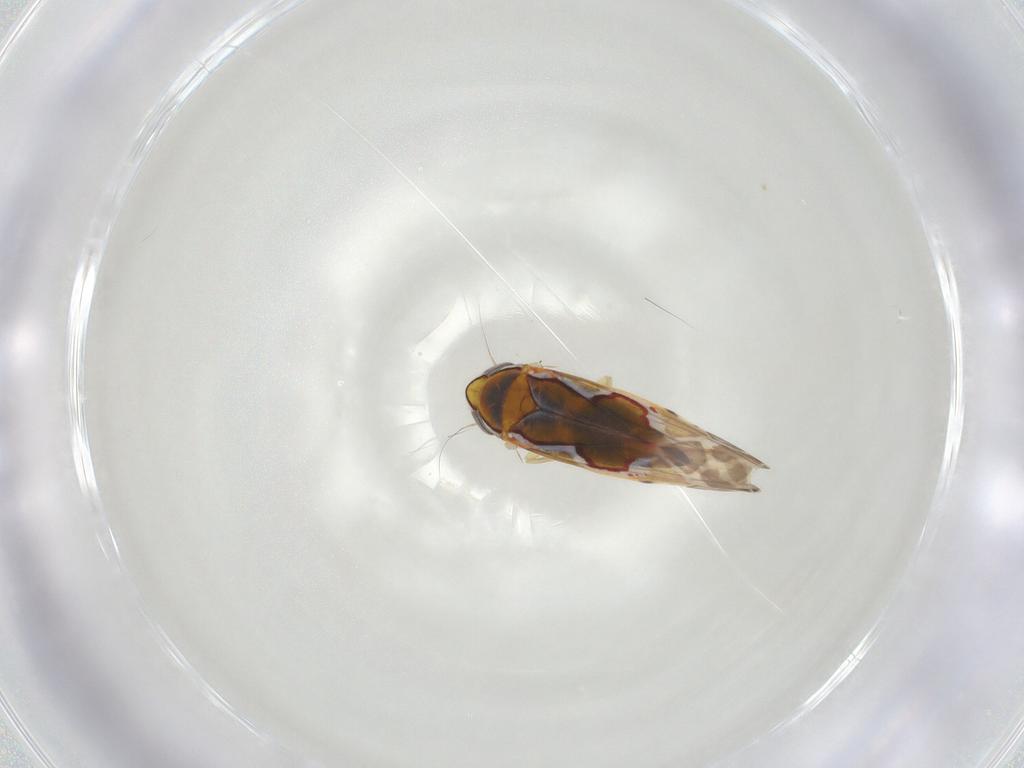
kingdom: Animalia
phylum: Arthropoda
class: Insecta
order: Hemiptera
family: Cicadellidae
